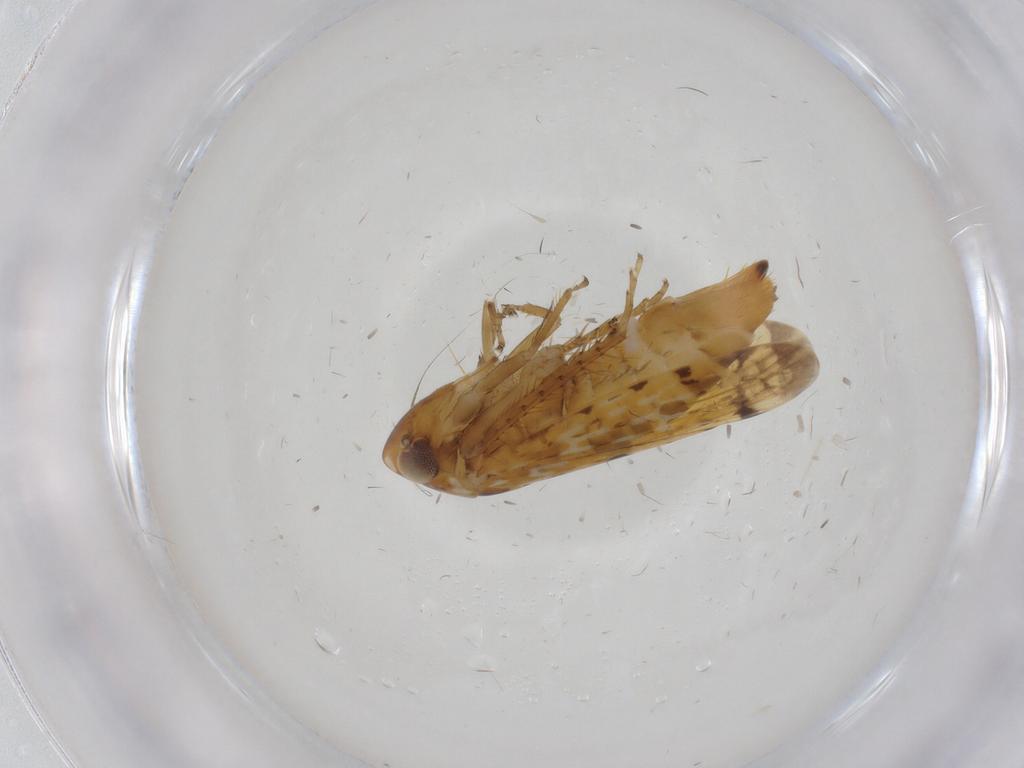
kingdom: Animalia
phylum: Arthropoda
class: Insecta
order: Hemiptera
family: Cicadellidae
